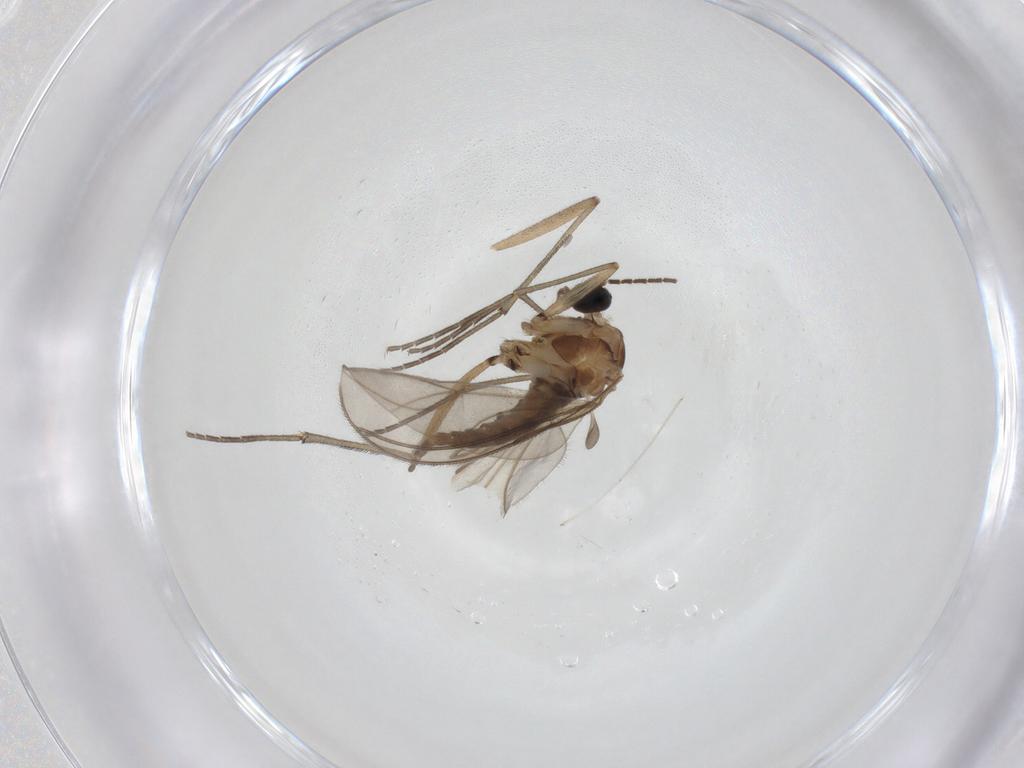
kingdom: Animalia
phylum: Arthropoda
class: Insecta
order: Diptera
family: Sciaridae
